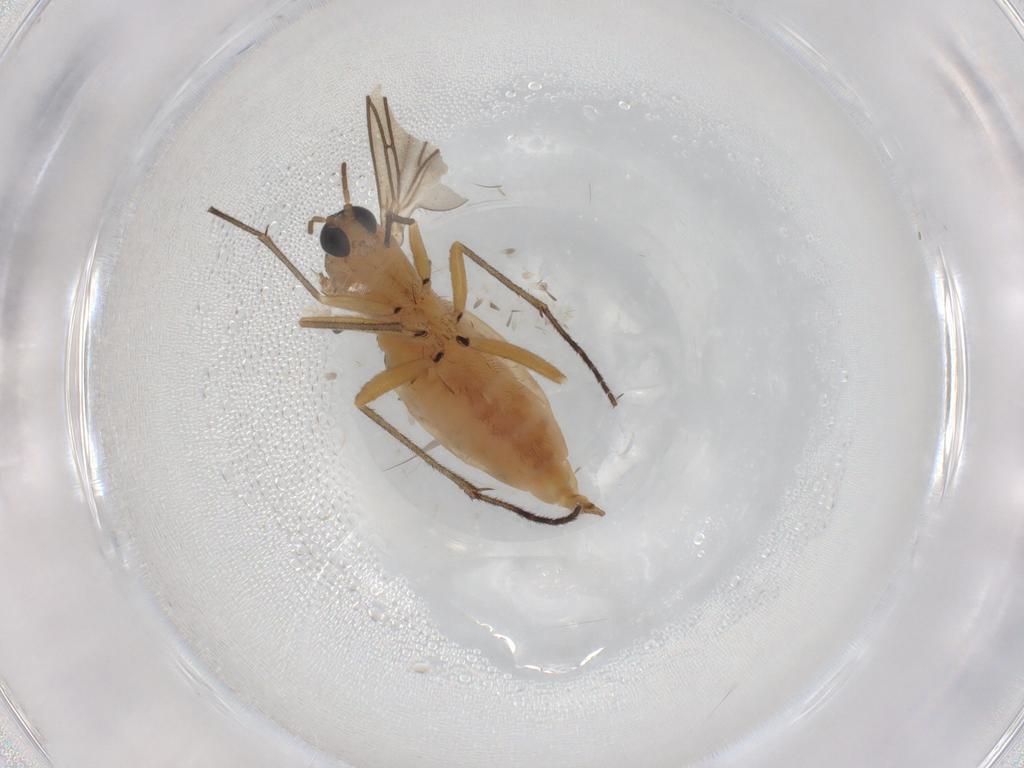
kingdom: Animalia
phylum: Arthropoda
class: Insecta
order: Diptera
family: Sciaridae
